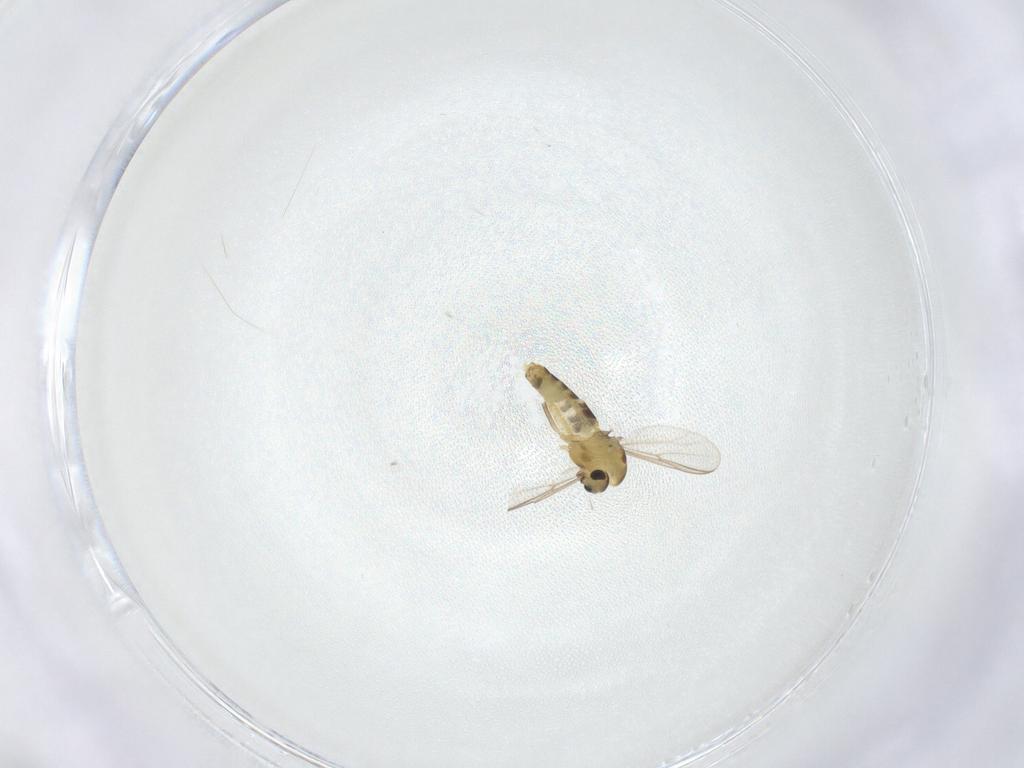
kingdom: Animalia
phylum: Arthropoda
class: Insecta
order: Diptera
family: Chironomidae
